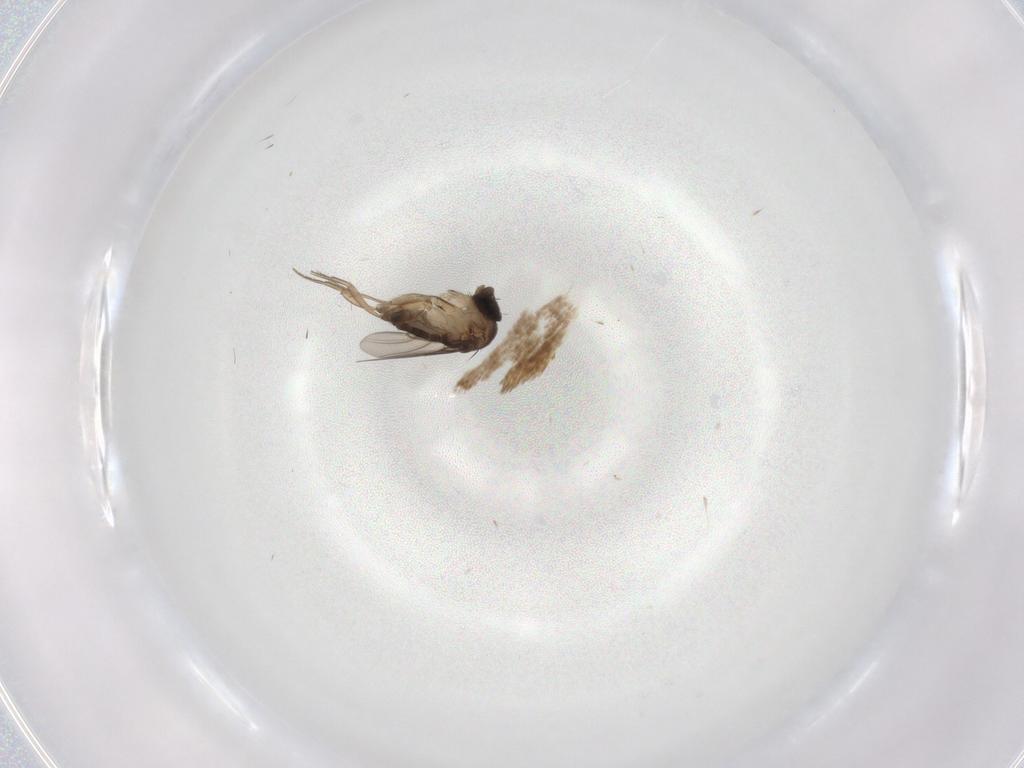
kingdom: Animalia
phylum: Arthropoda
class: Insecta
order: Diptera
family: Phoridae
